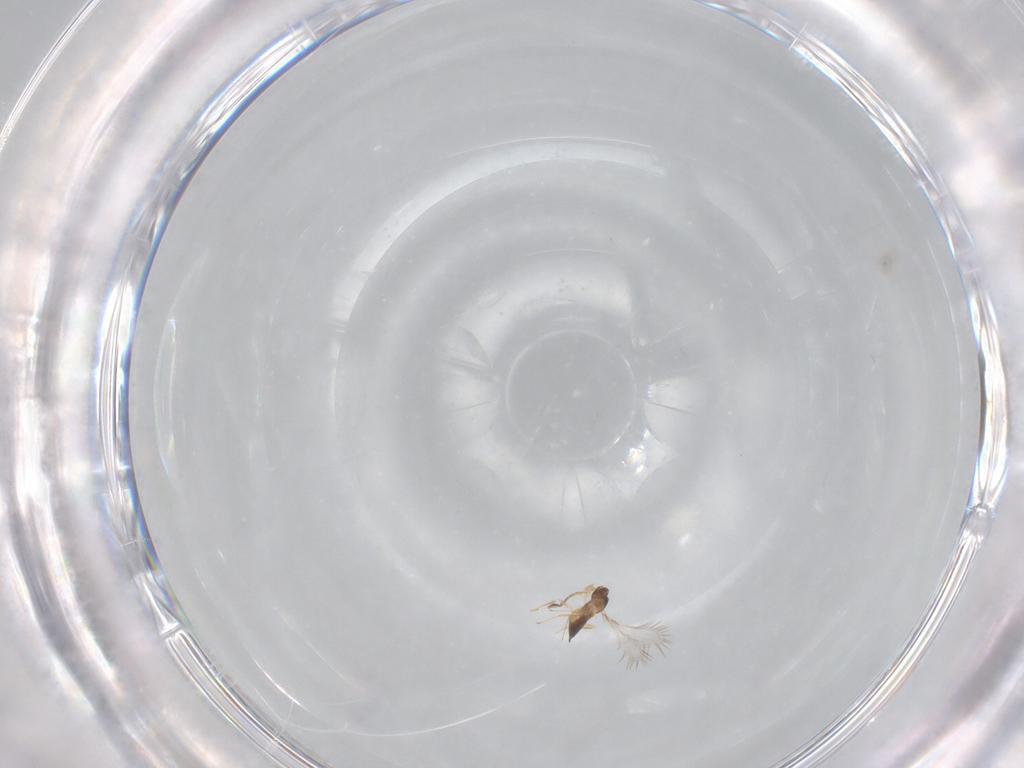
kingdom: Animalia
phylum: Arthropoda
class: Insecta
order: Hymenoptera
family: Mymaridae
